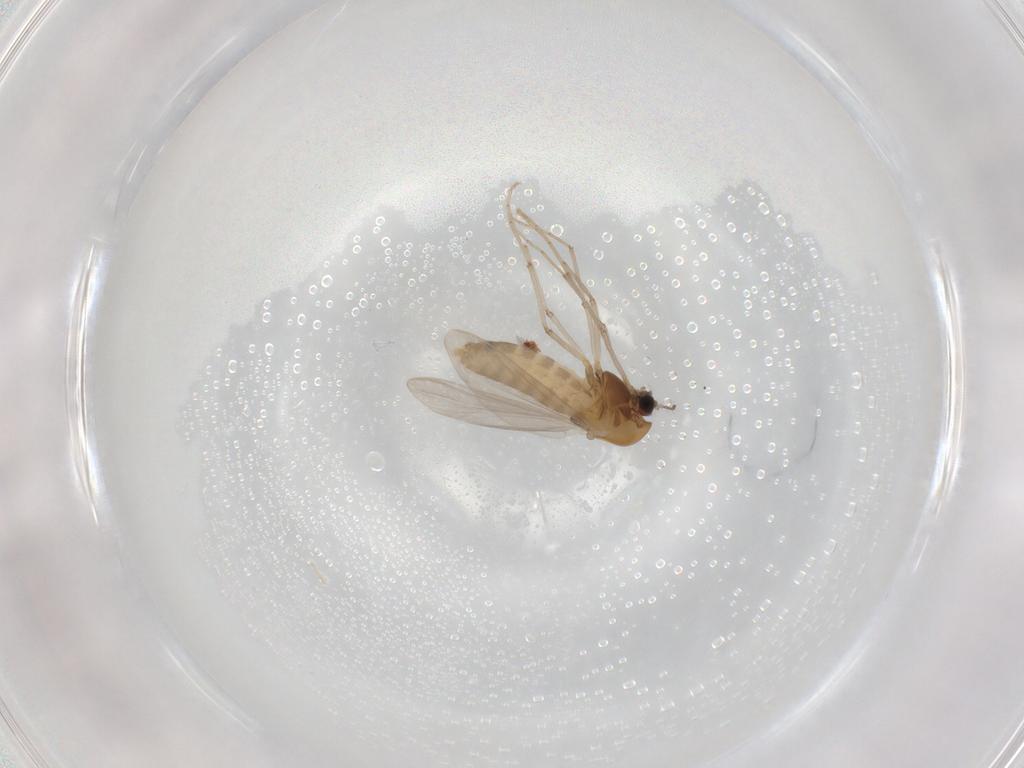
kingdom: Animalia
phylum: Arthropoda
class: Insecta
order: Diptera
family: Chironomidae
